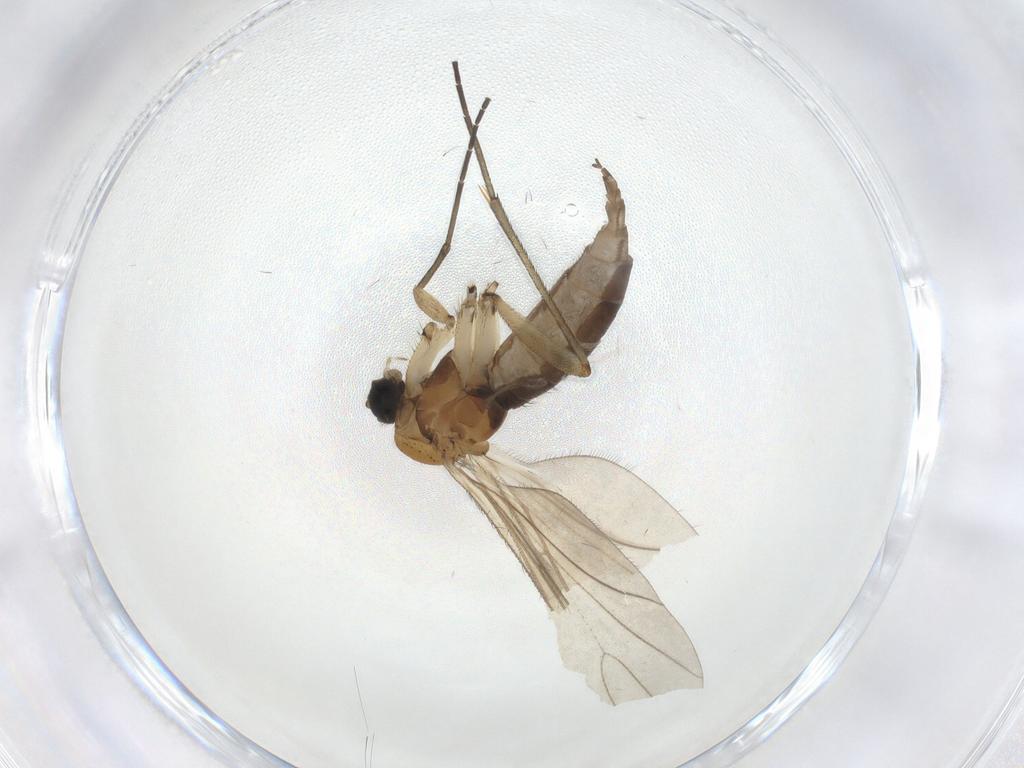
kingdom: Animalia
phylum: Arthropoda
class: Insecta
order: Diptera
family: Sciaridae
